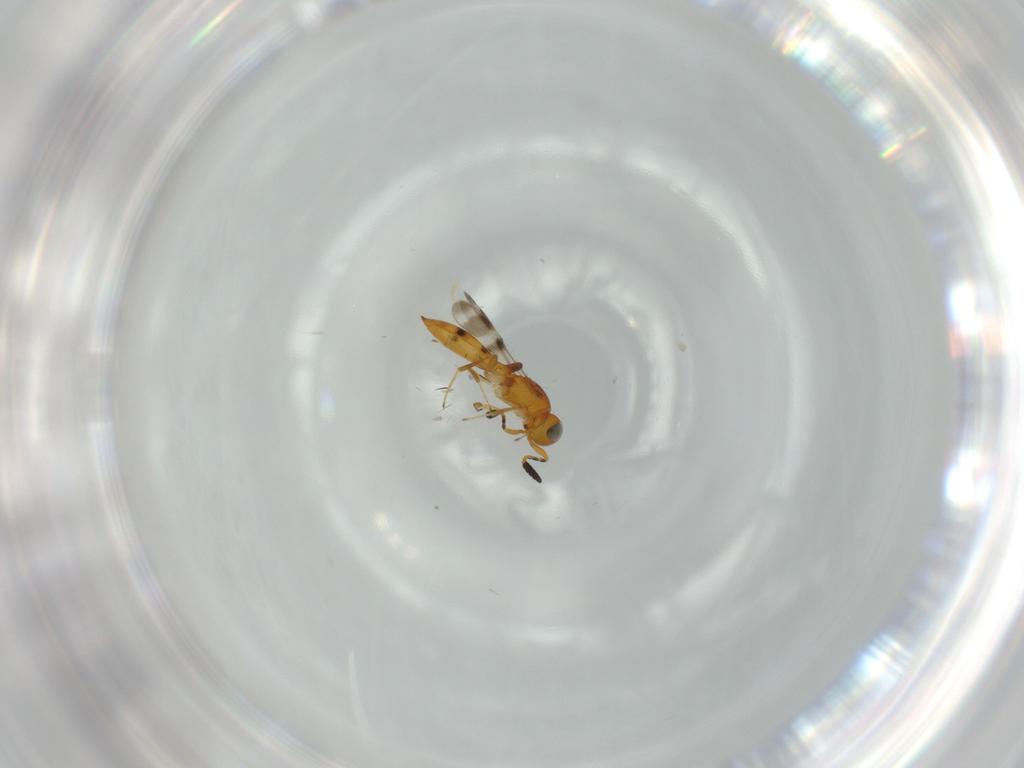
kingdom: Animalia
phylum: Arthropoda
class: Insecta
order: Hymenoptera
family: Scelionidae
